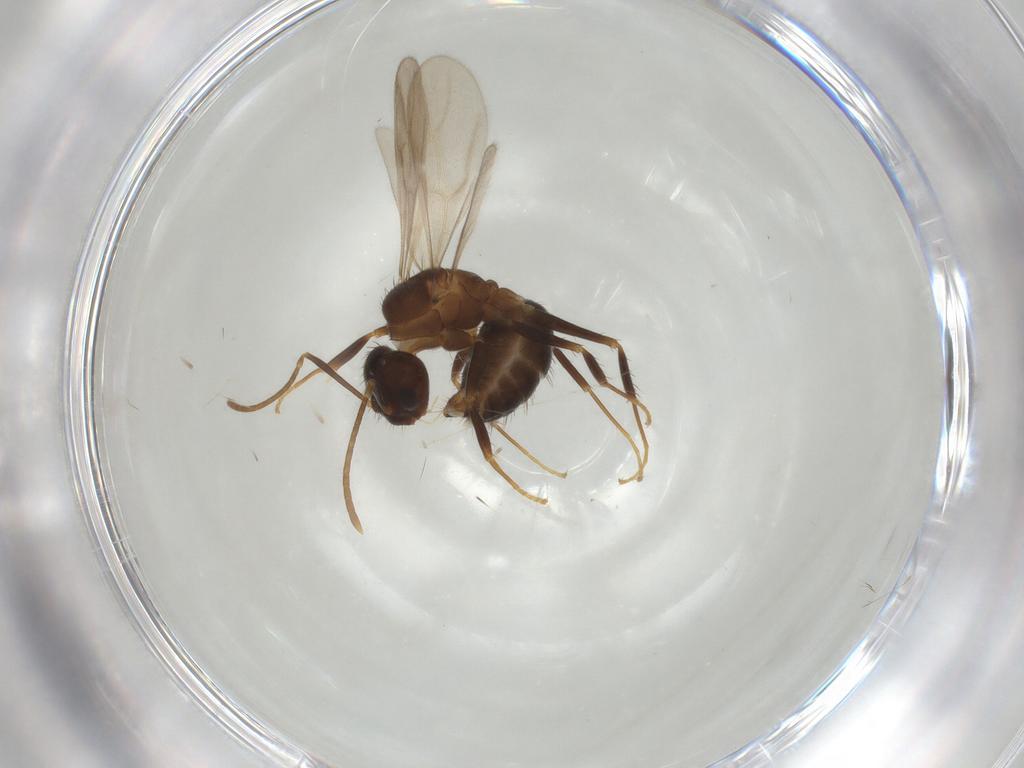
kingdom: Animalia
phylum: Arthropoda
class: Insecta
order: Hymenoptera
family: Formicidae
